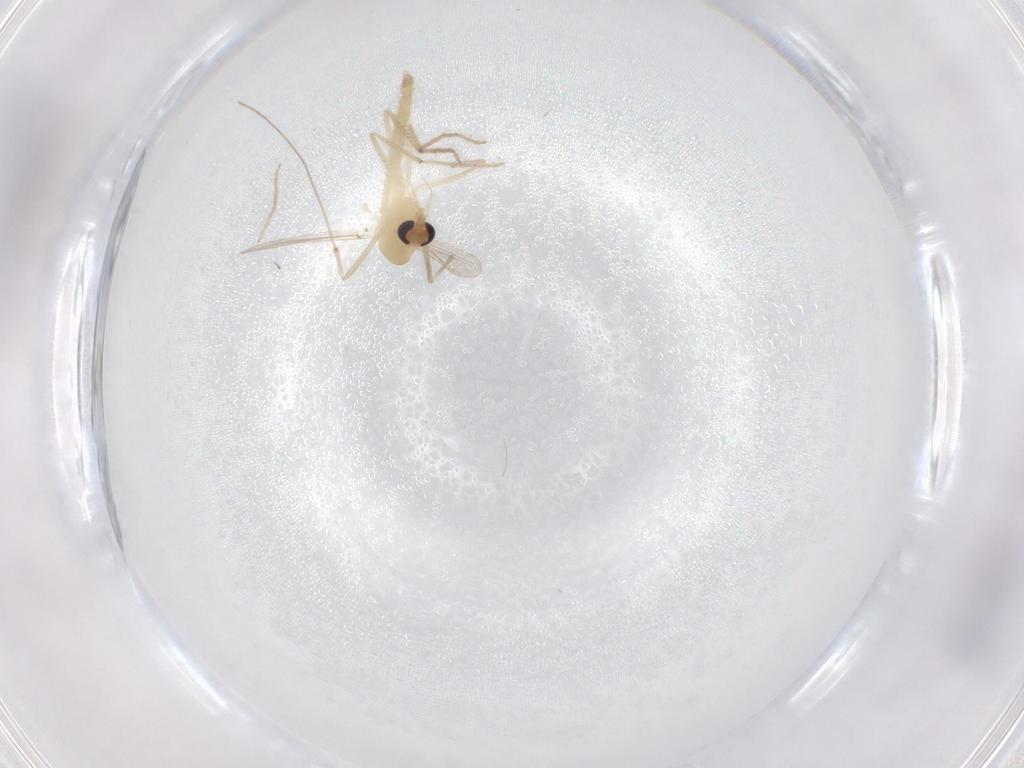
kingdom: Animalia
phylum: Arthropoda
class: Insecta
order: Diptera
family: Chironomidae
